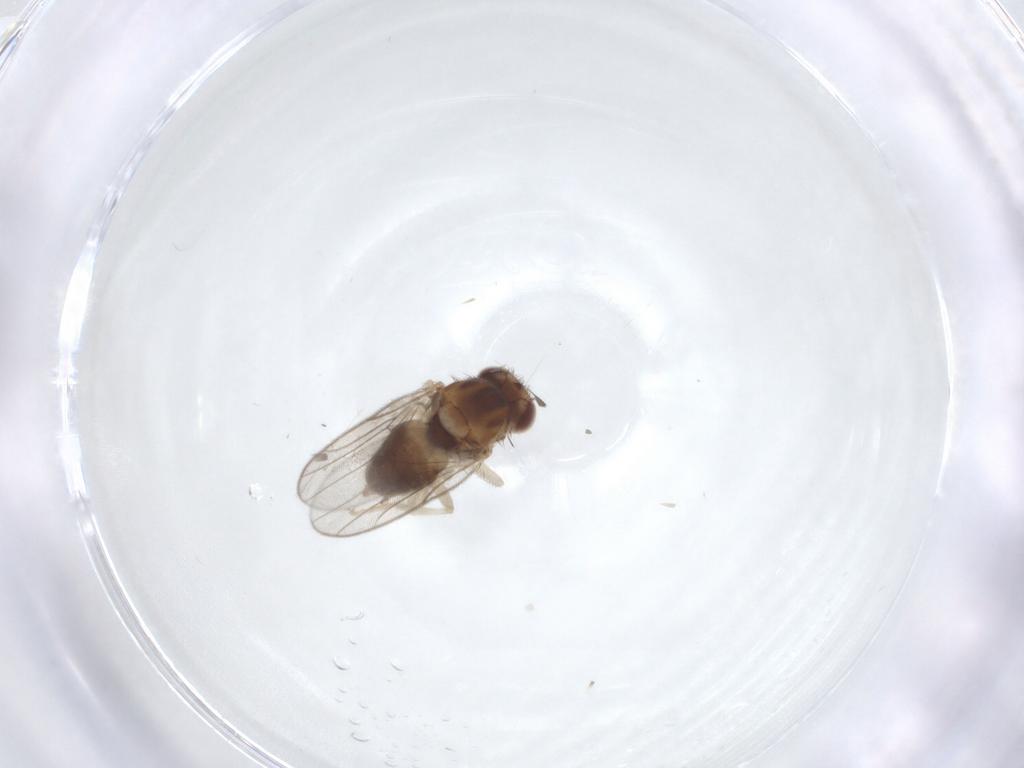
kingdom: Animalia
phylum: Arthropoda
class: Insecta
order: Diptera
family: Chloropidae
